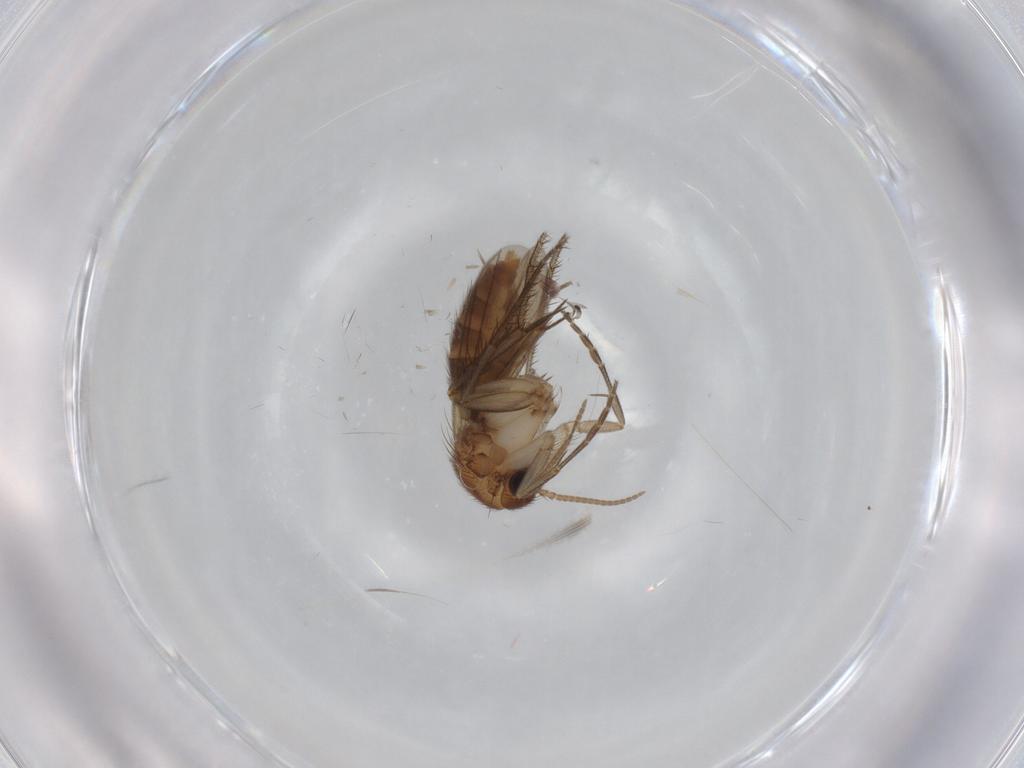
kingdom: Animalia
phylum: Arthropoda
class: Insecta
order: Diptera
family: Mycetophilidae
